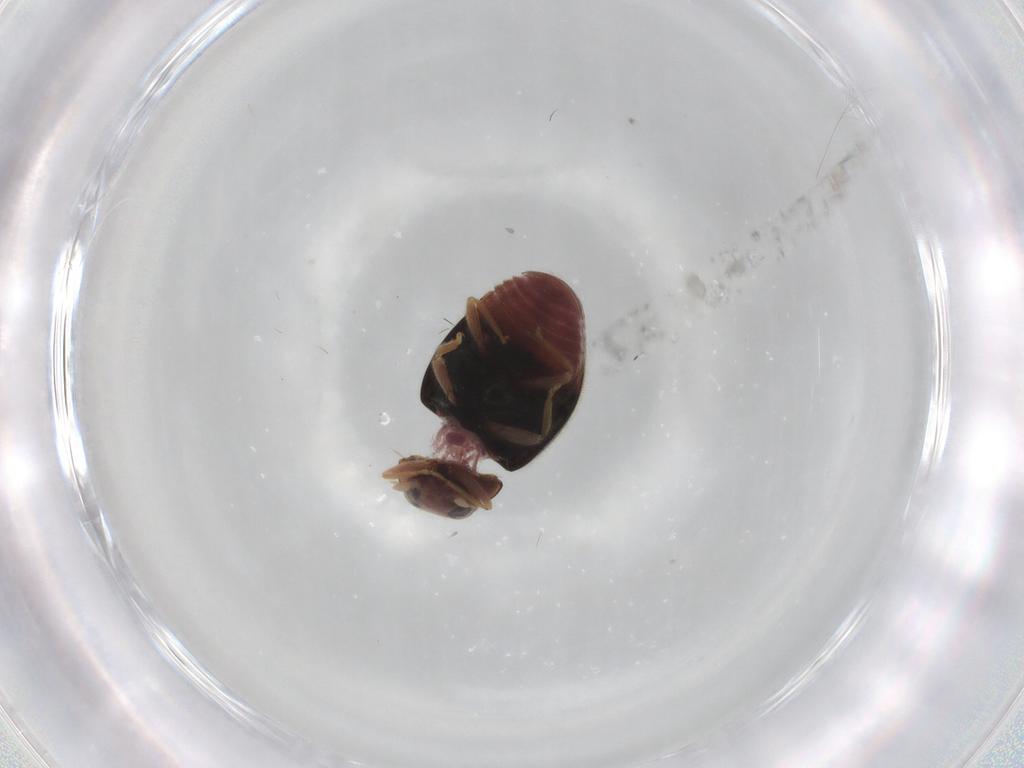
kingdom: Animalia
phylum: Arthropoda
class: Insecta
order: Coleoptera
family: Coccinellidae
